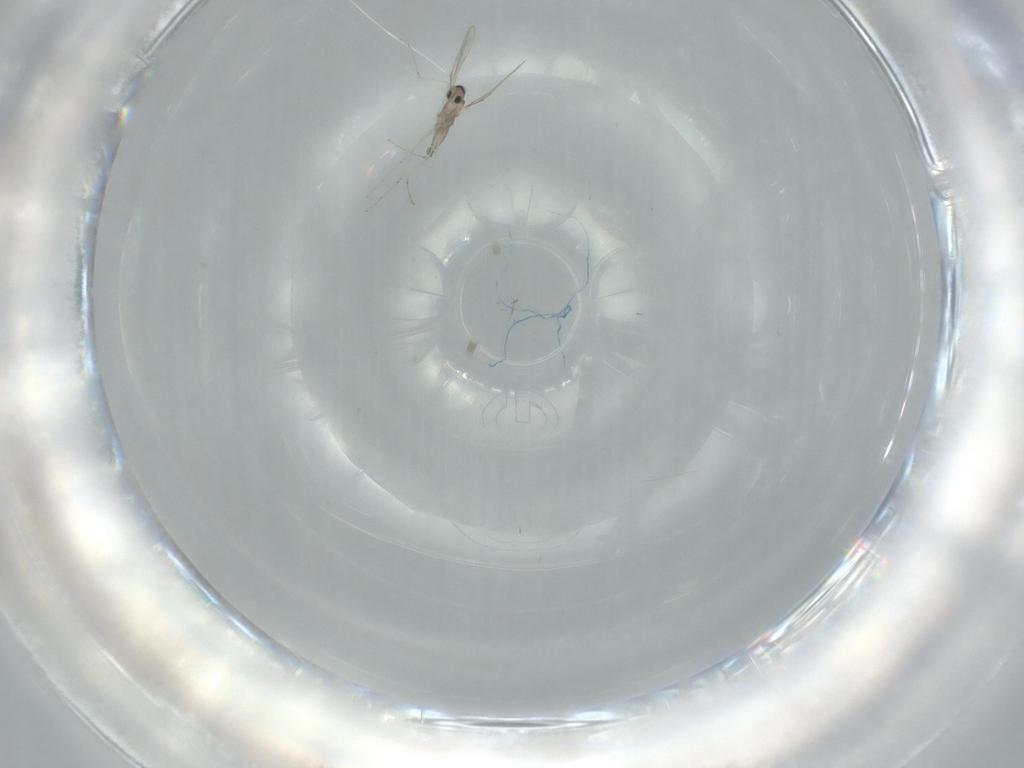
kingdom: Animalia
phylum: Arthropoda
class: Insecta
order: Diptera
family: Cecidomyiidae
